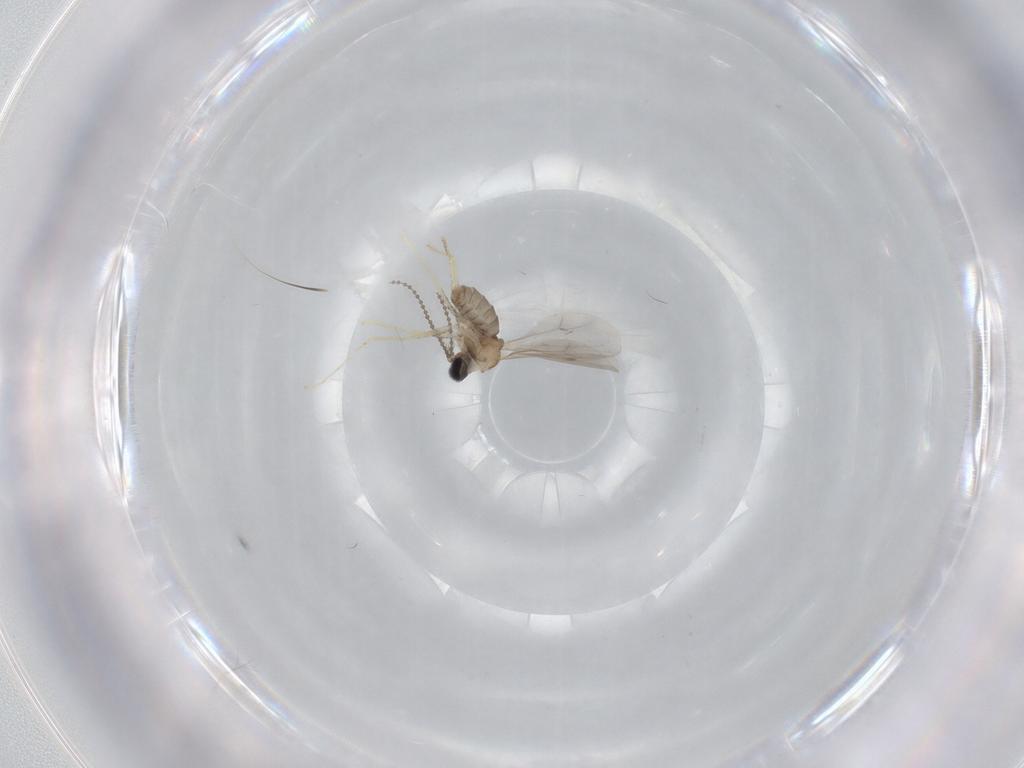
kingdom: Animalia
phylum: Arthropoda
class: Insecta
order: Diptera
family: Cecidomyiidae
